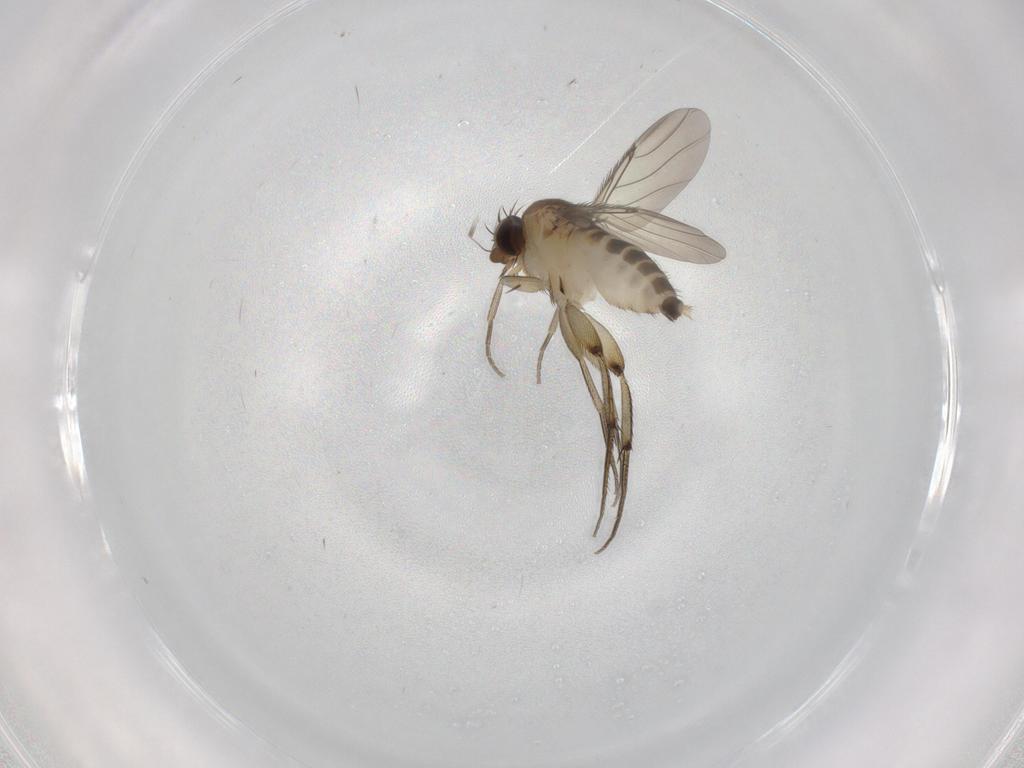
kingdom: Animalia
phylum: Arthropoda
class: Insecta
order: Diptera
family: Phoridae
